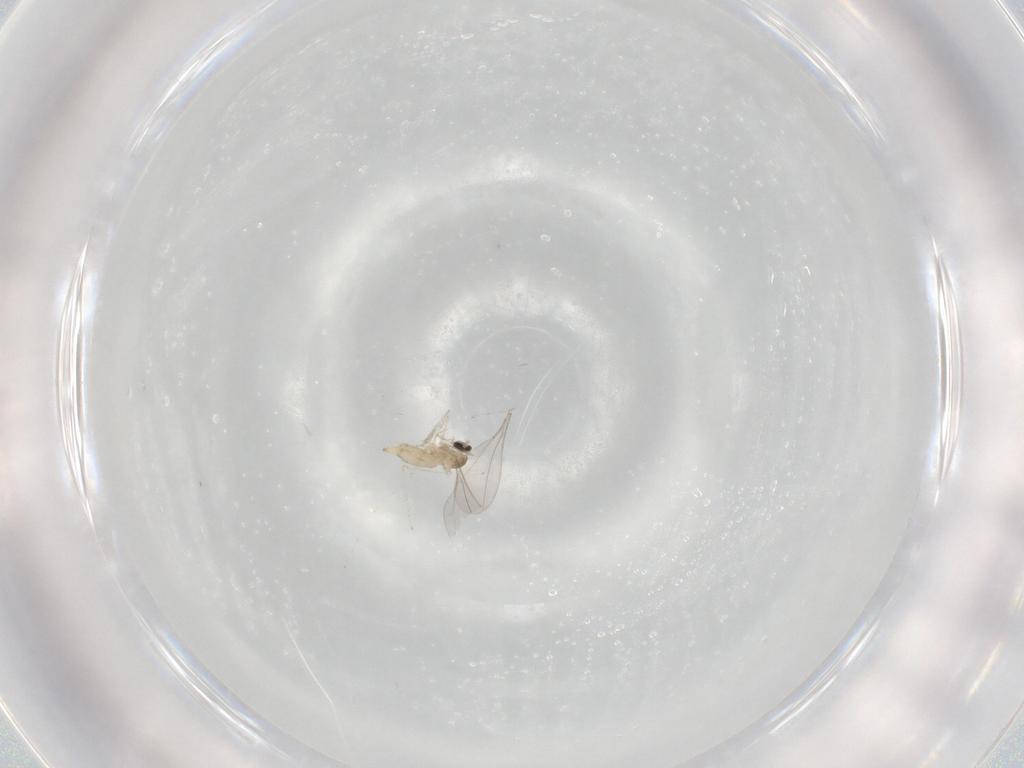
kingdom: Animalia
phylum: Arthropoda
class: Insecta
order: Diptera
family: Cecidomyiidae
